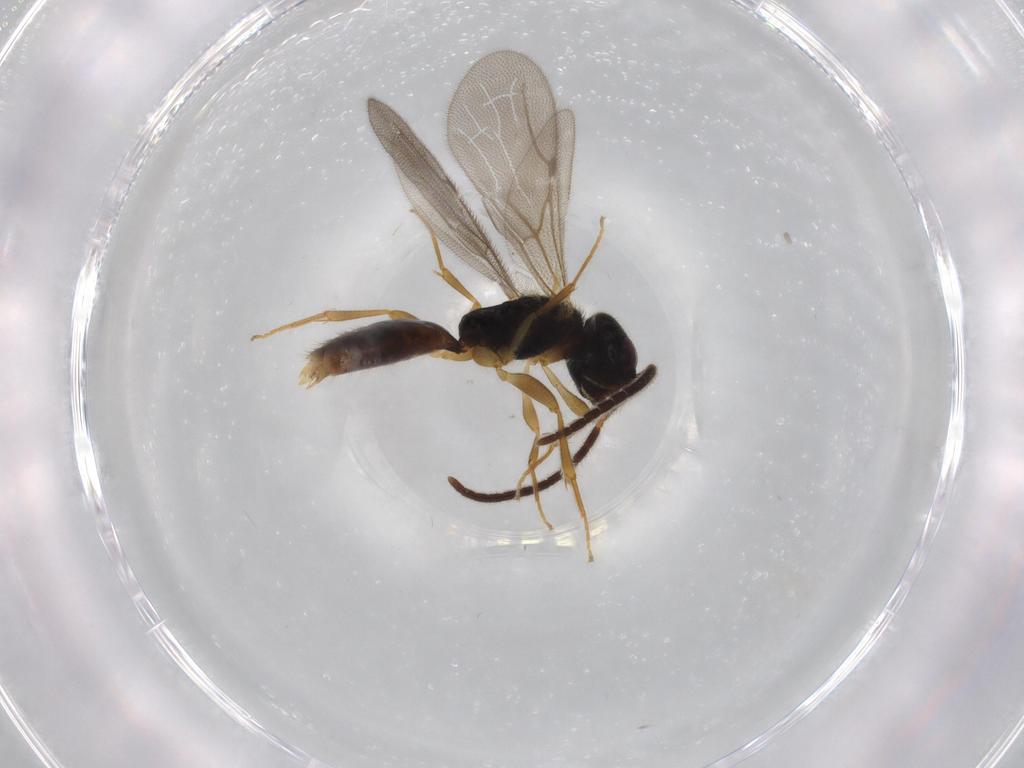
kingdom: Animalia
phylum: Arthropoda
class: Insecta
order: Hymenoptera
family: Bethylidae
